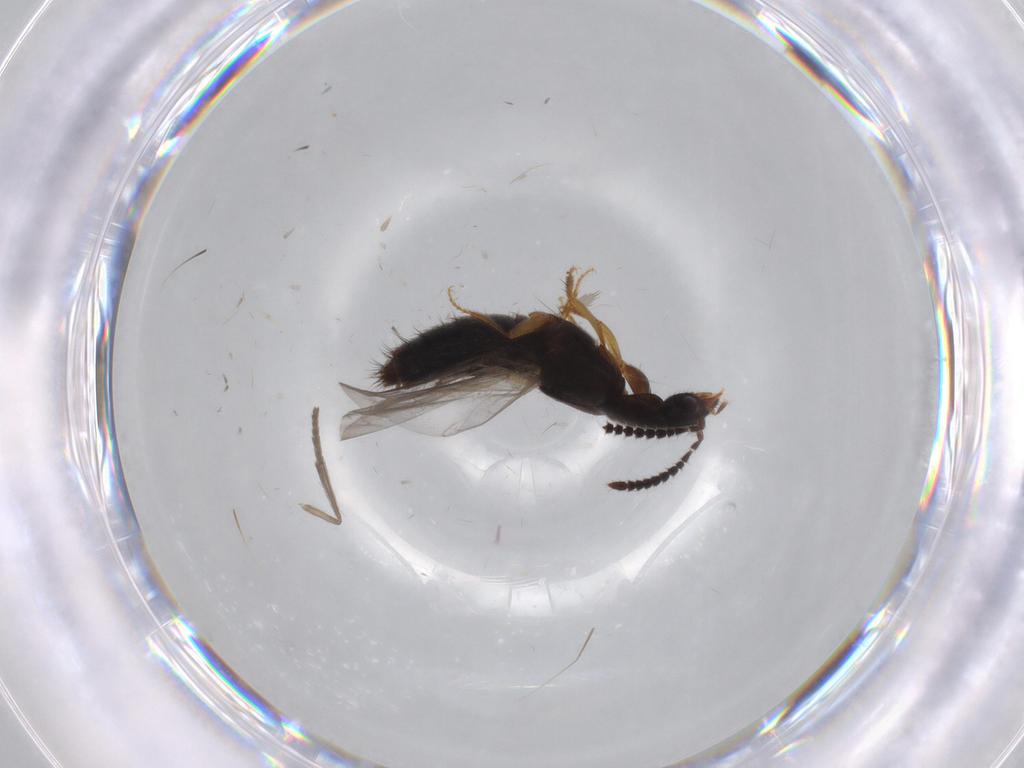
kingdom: Animalia
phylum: Arthropoda
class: Insecta
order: Coleoptera
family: Staphylinidae
